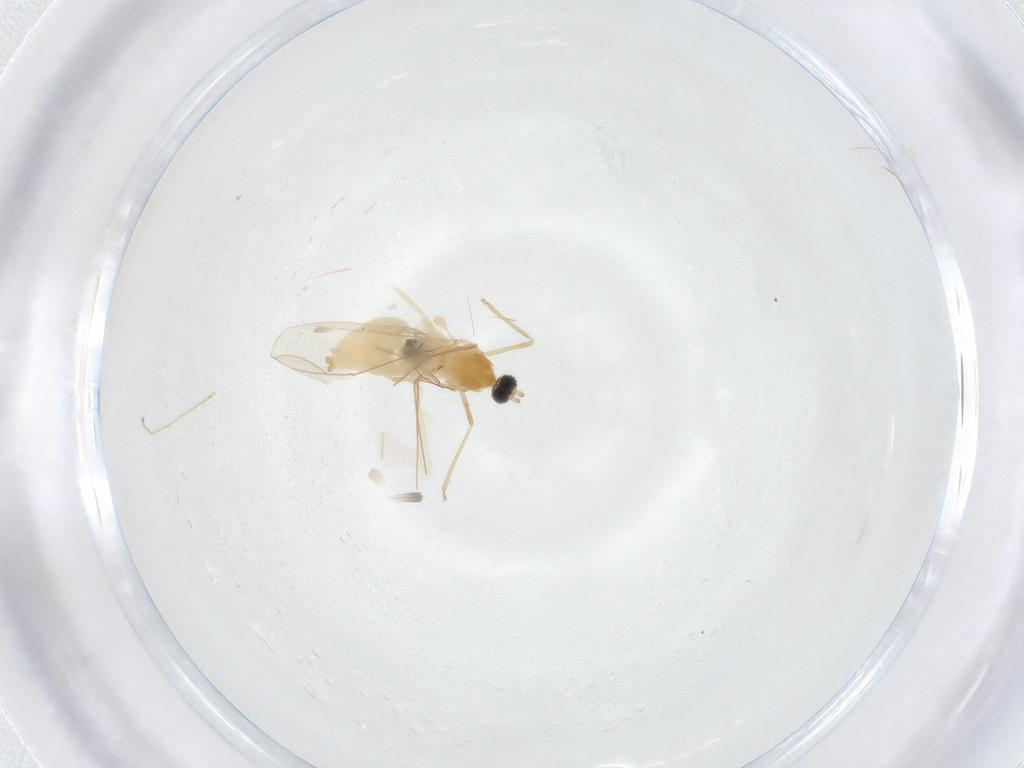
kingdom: Animalia
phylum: Arthropoda
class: Insecta
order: Diptera
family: Cecidomyiidae
